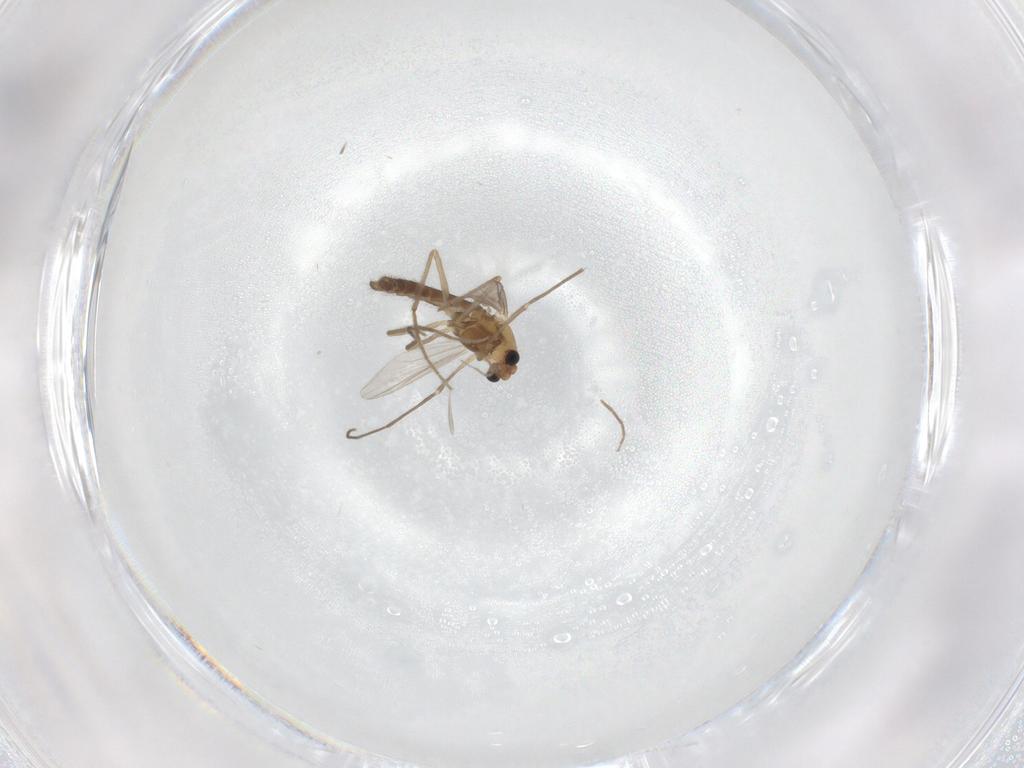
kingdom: Animalia
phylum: Arthropoda
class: Insecta
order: Diptera
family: Chironomidae
